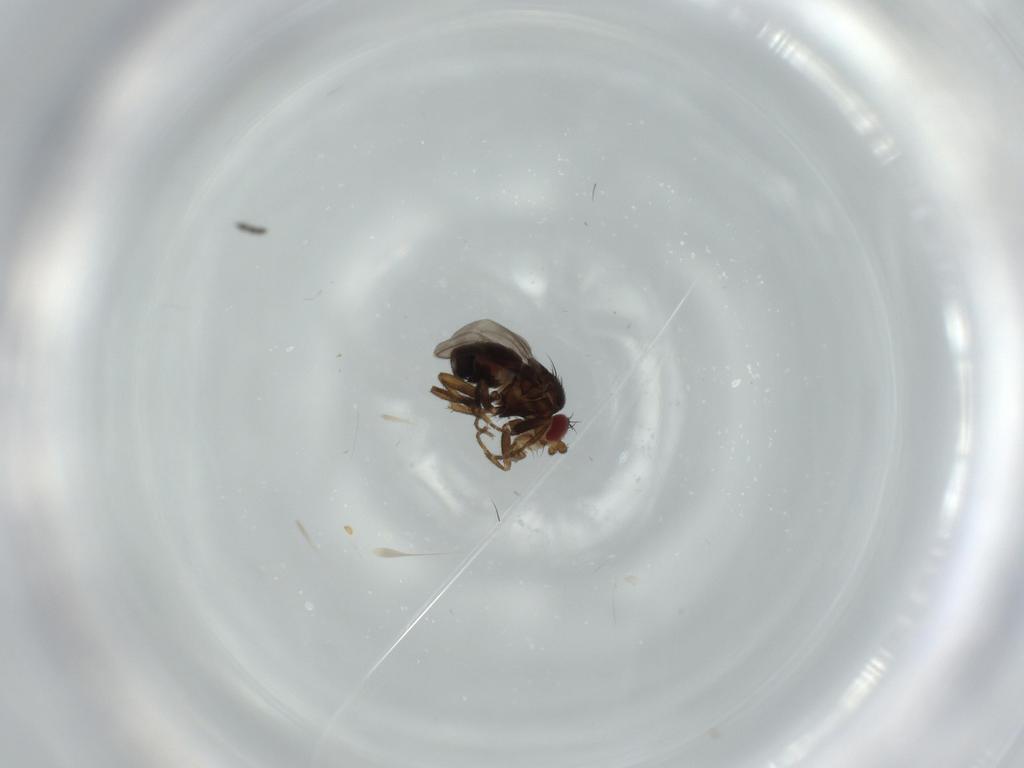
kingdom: Animalia
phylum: Arthropoda
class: Insecta
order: Diptera
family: Sphaeroceridae
